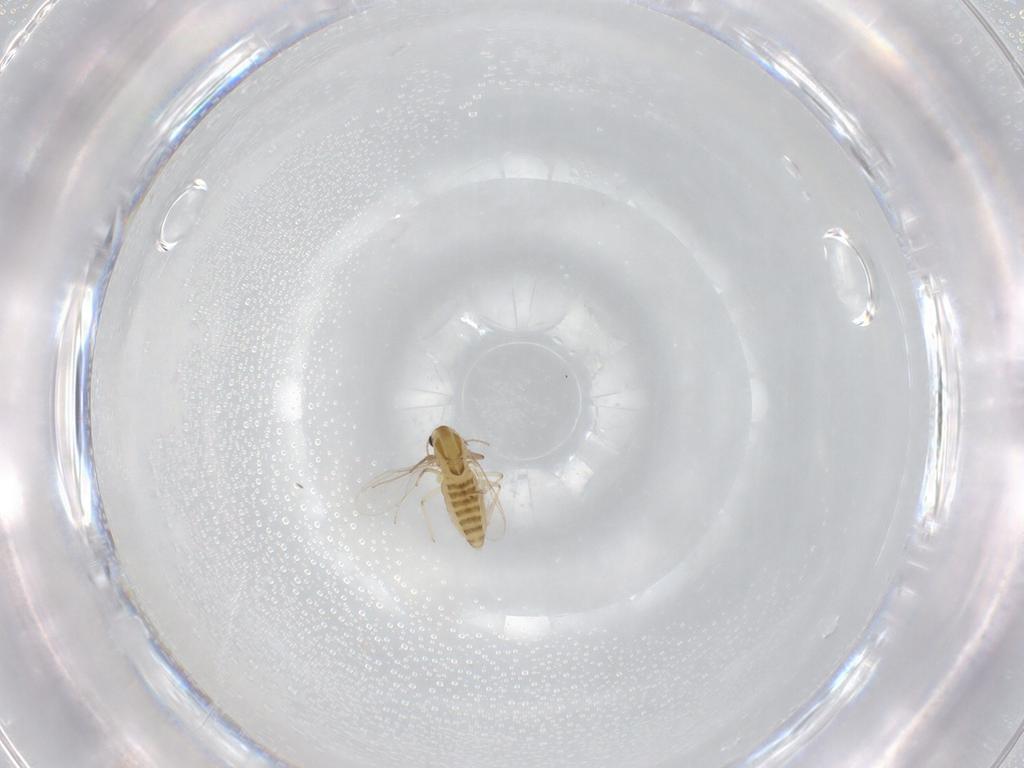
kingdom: Animalia
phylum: Arthropoda
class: Insecta
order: Diptera
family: Chironomidae
